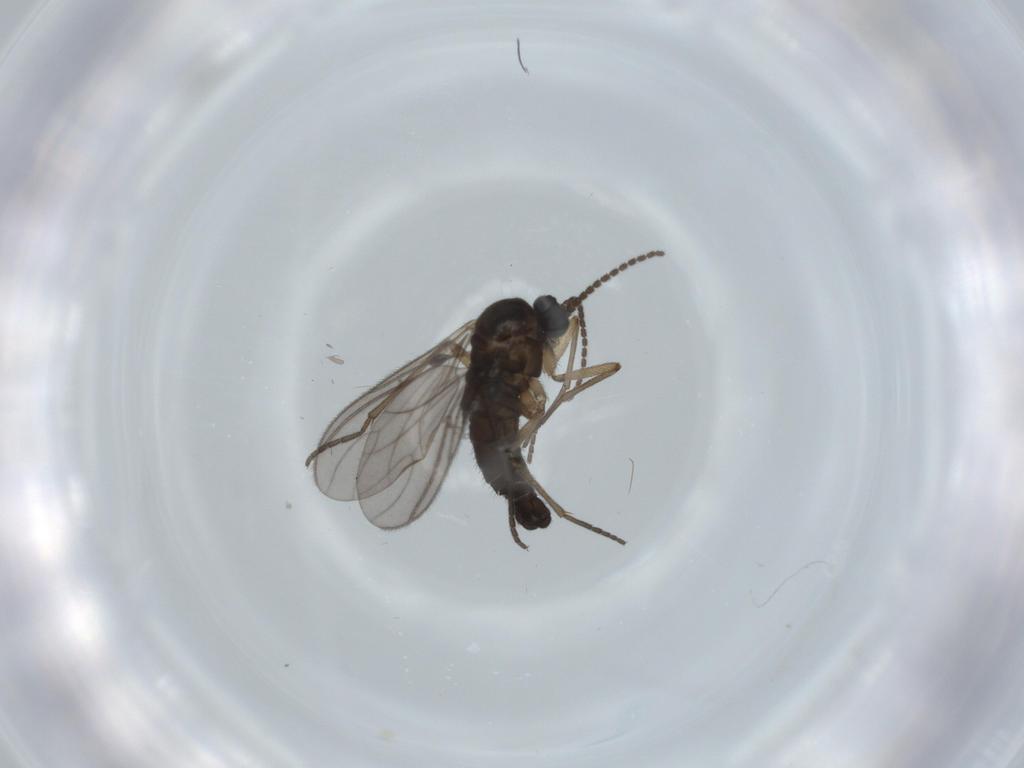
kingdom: Animalia
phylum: Arthropoda
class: Insecta
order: Diptera
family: Sciaridae
